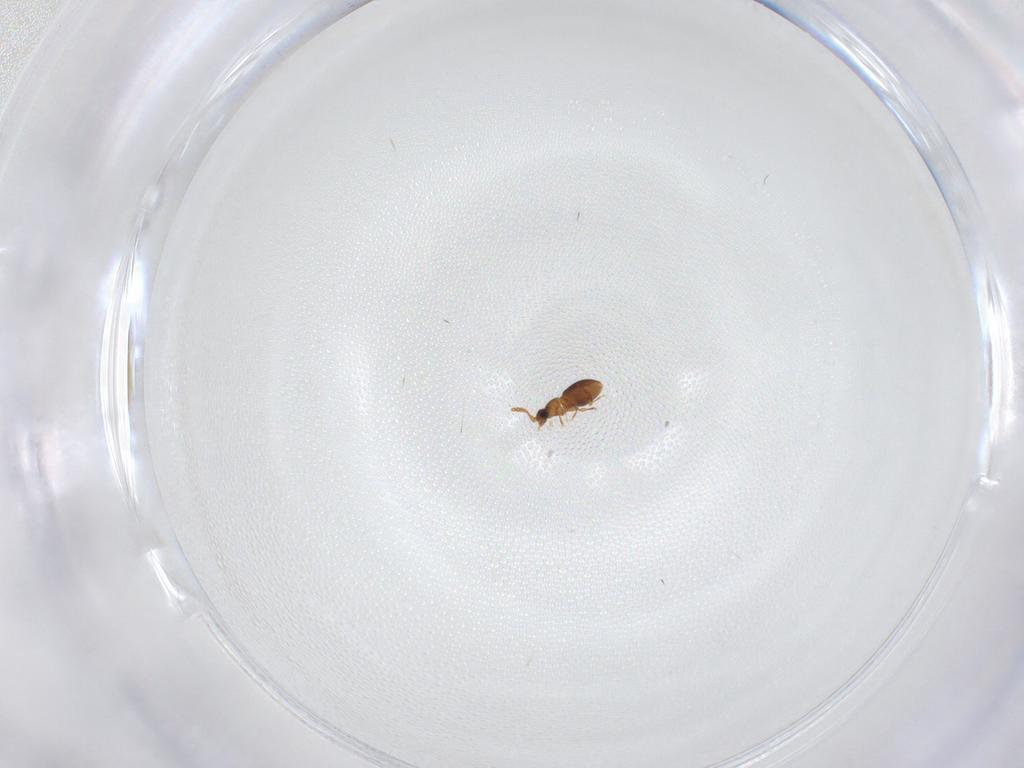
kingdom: Animalia
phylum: Arthropoda
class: Insecta
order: Coleoptera
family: Staphylinidae
